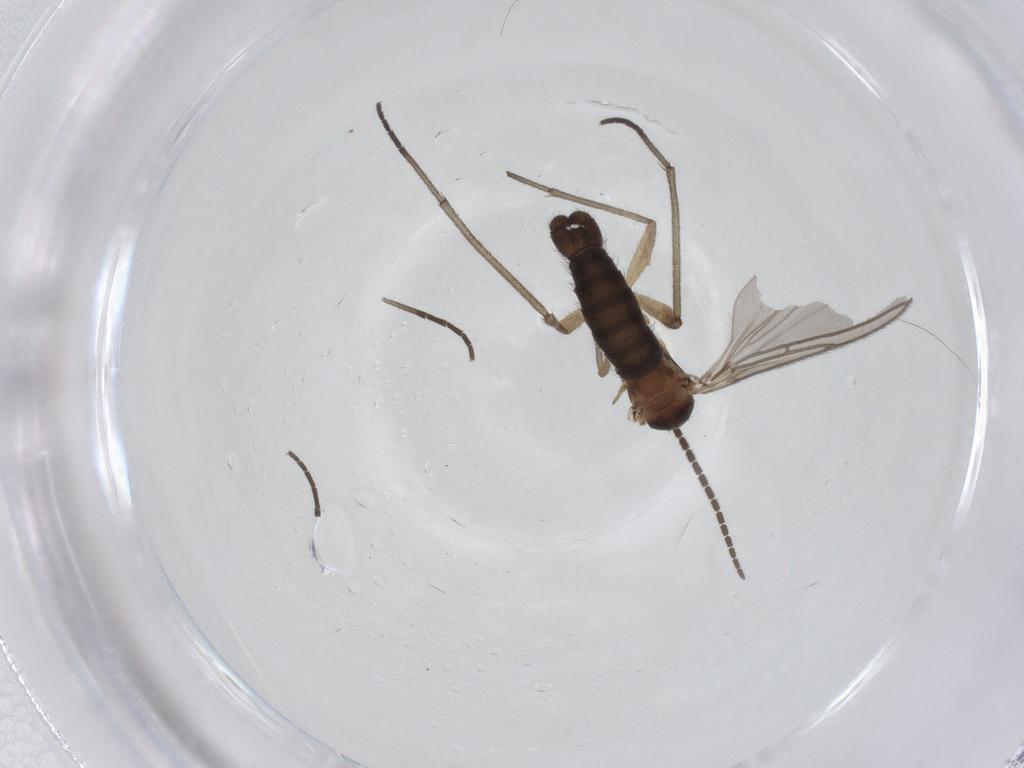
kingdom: Animalia
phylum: Arthropoda
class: Insecta
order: Diptera
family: Sciaridae
